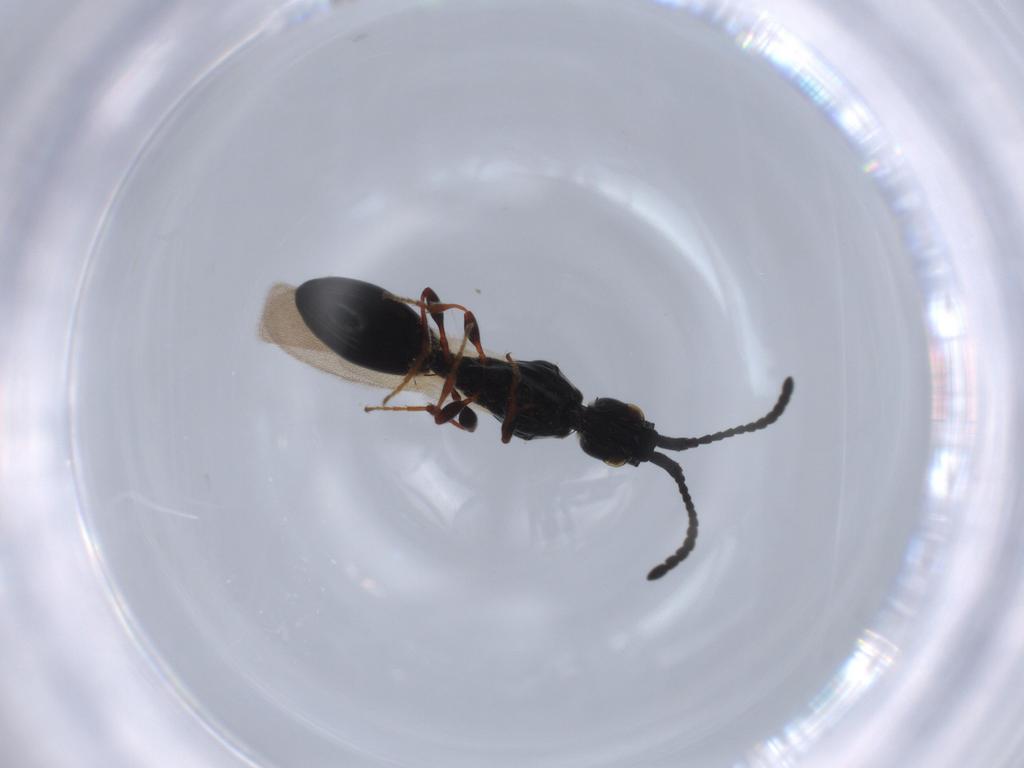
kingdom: Animalia
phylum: Arthropoda
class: Insecta
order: Hymenoptera
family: Diapriidae
